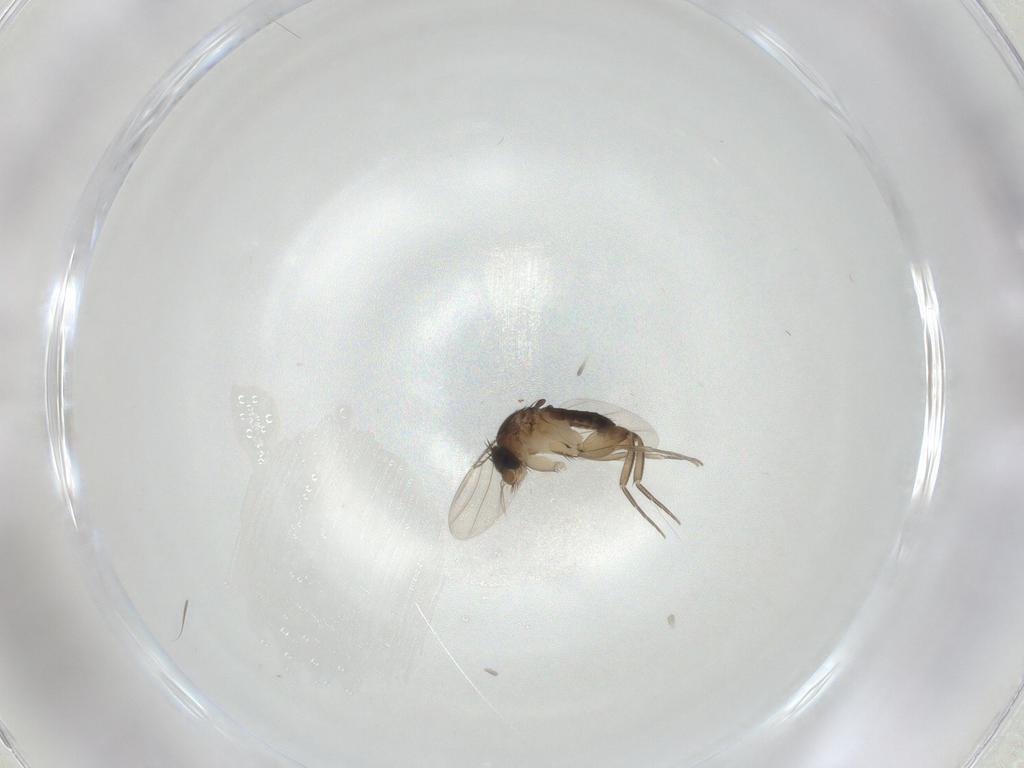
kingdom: Animalia
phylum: Arthropoda
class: Insecta
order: Diptera
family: Phoridae
